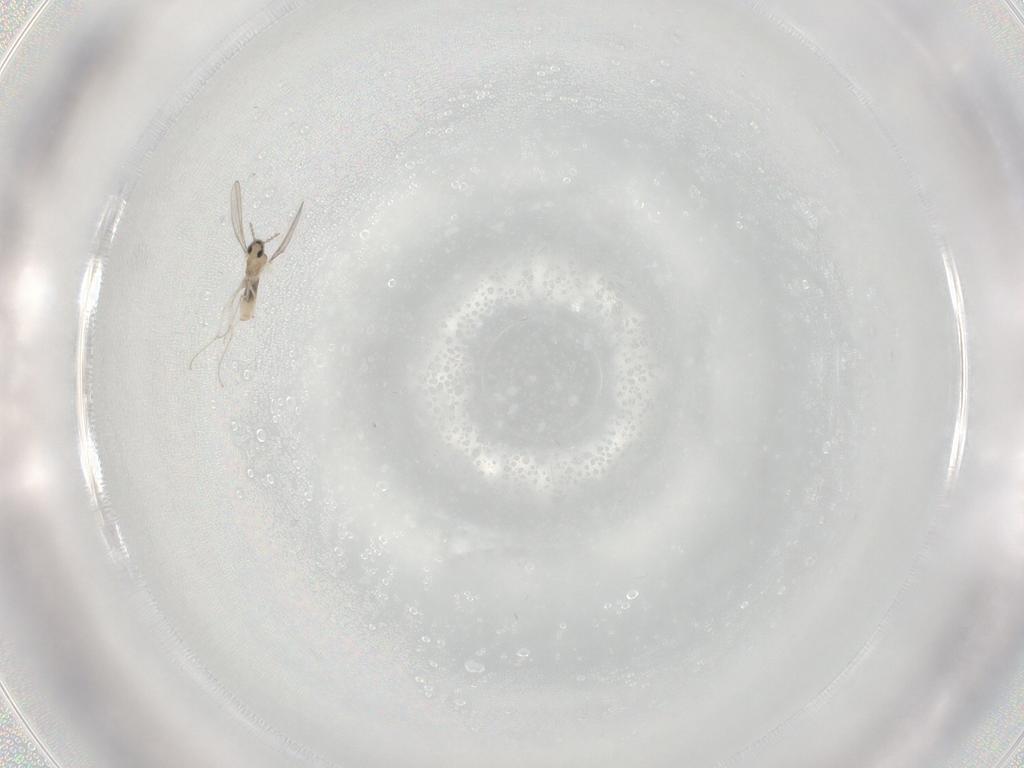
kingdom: Animalia
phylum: Arthropoda
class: Insecta
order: Diptera
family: Cecidomyiidae
